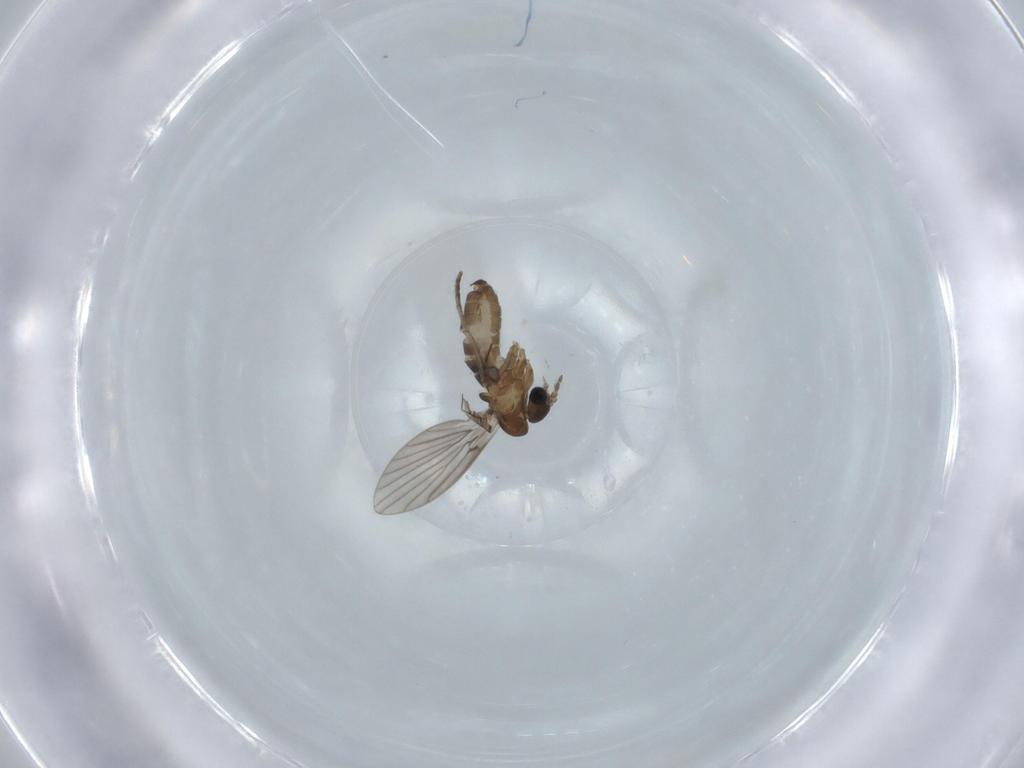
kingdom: Animalia
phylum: Arthropoda
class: Insecta
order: Diptera
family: Psychodidae
